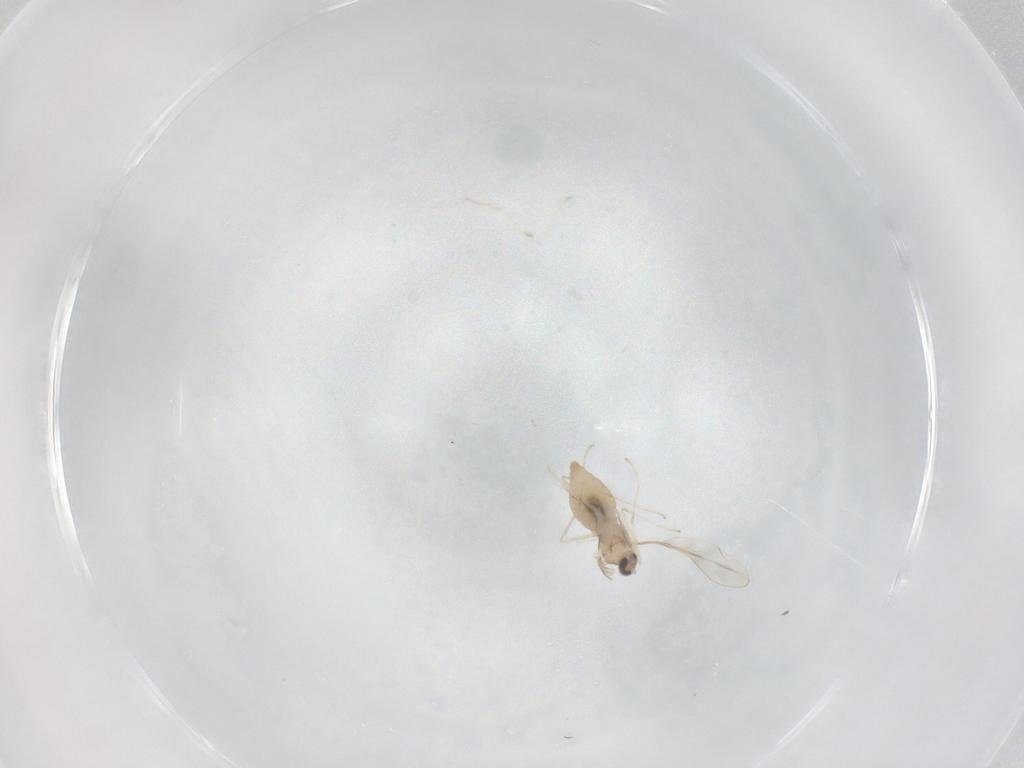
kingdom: Animalia
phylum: Arthropoda
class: Insecta
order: Diptera
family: Cecidomyiidae
